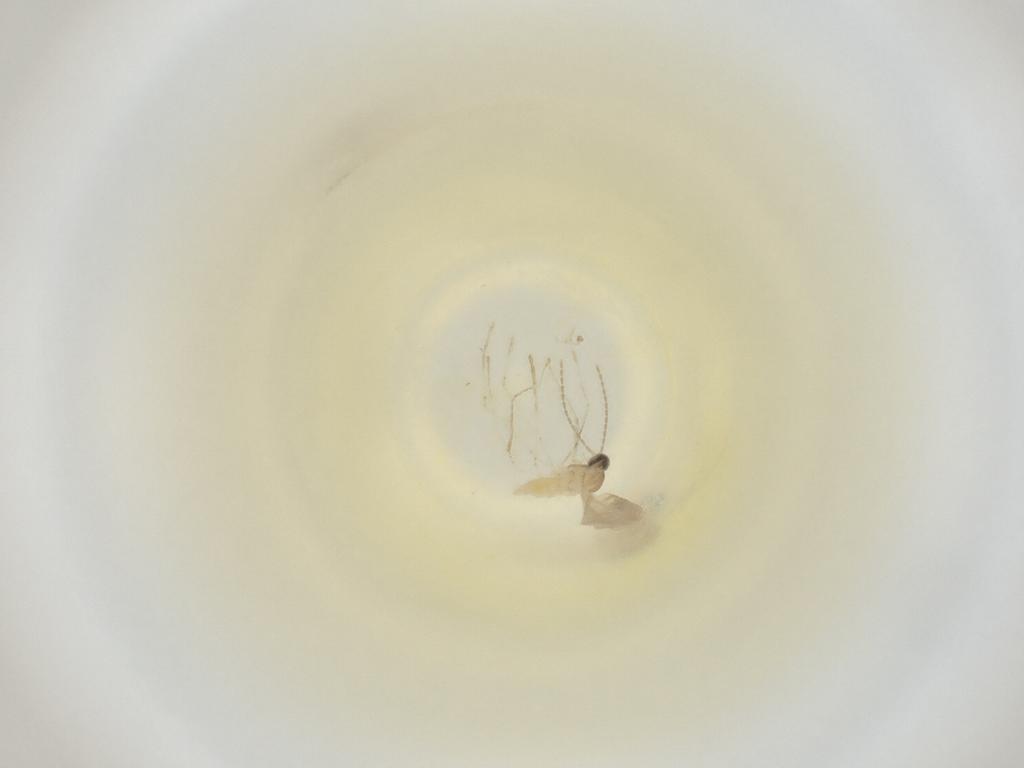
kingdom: Animalia
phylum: Arthropoda
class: Insecta
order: Diptera
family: Cecidomyiidae
